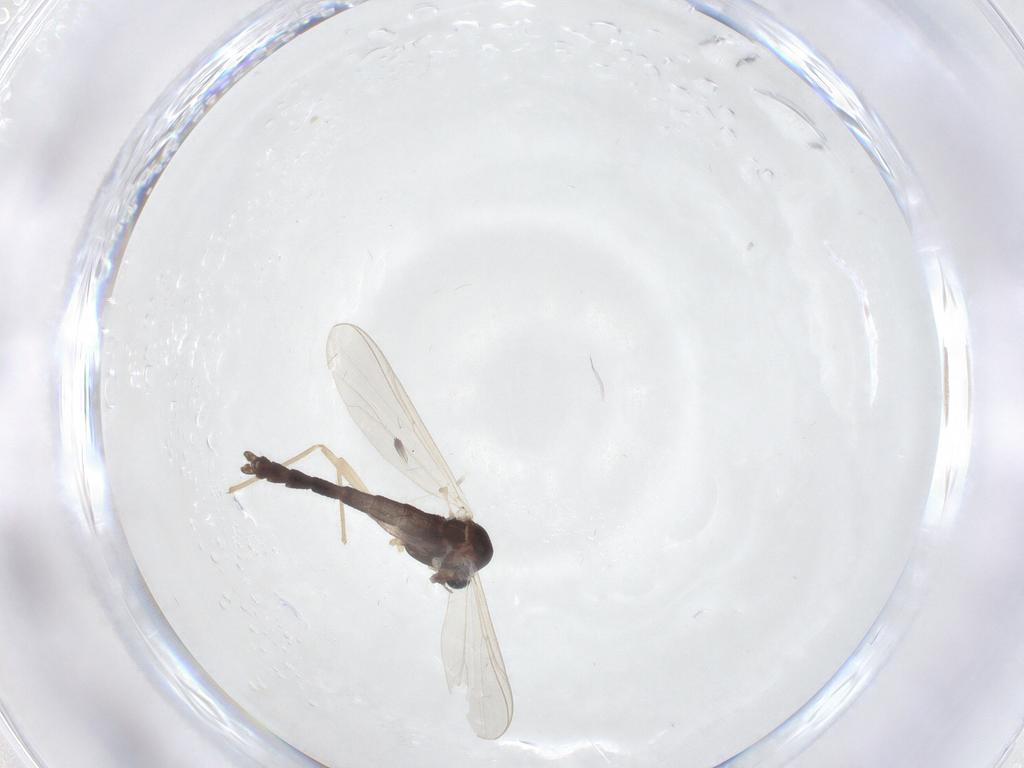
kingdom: Animalia
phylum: Arthropoda
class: Insecta
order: Diptera
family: Chironomidae
